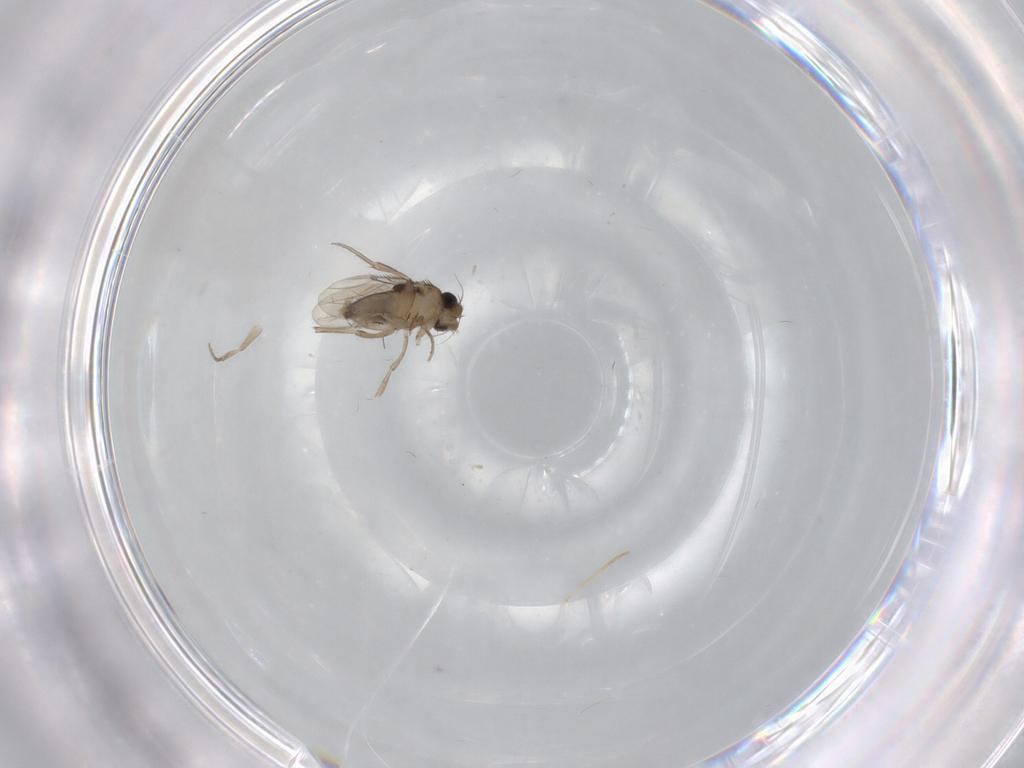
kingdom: Animalia
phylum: Arthropoda
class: Insecta
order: Diptera
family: Phoridae
